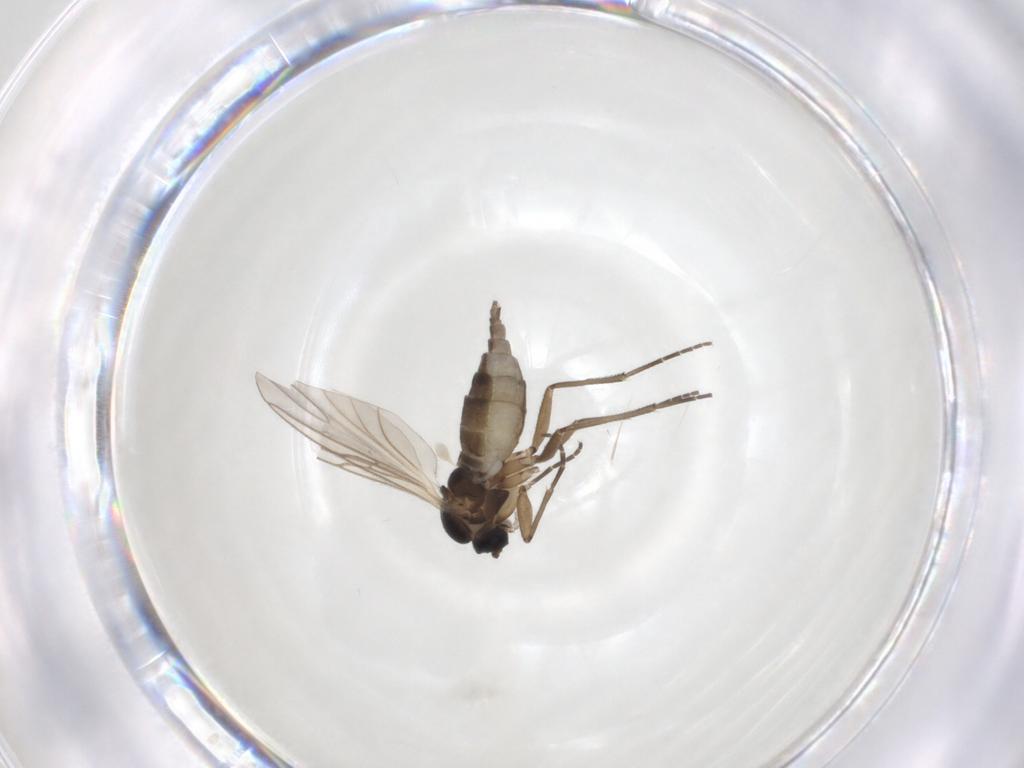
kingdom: Animalia
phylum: Arthropoda
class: Insecta
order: Diptera
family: Hybotidae
